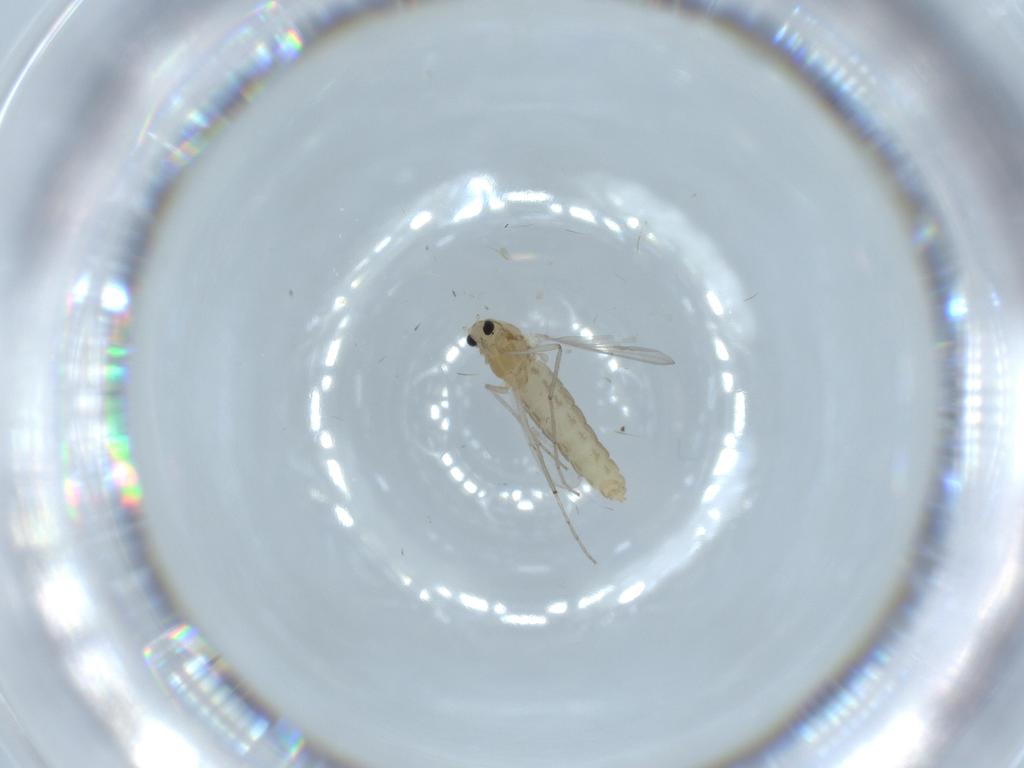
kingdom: Animalia
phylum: Arthropoda
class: Insecta
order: Diptera
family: Chironomidae
